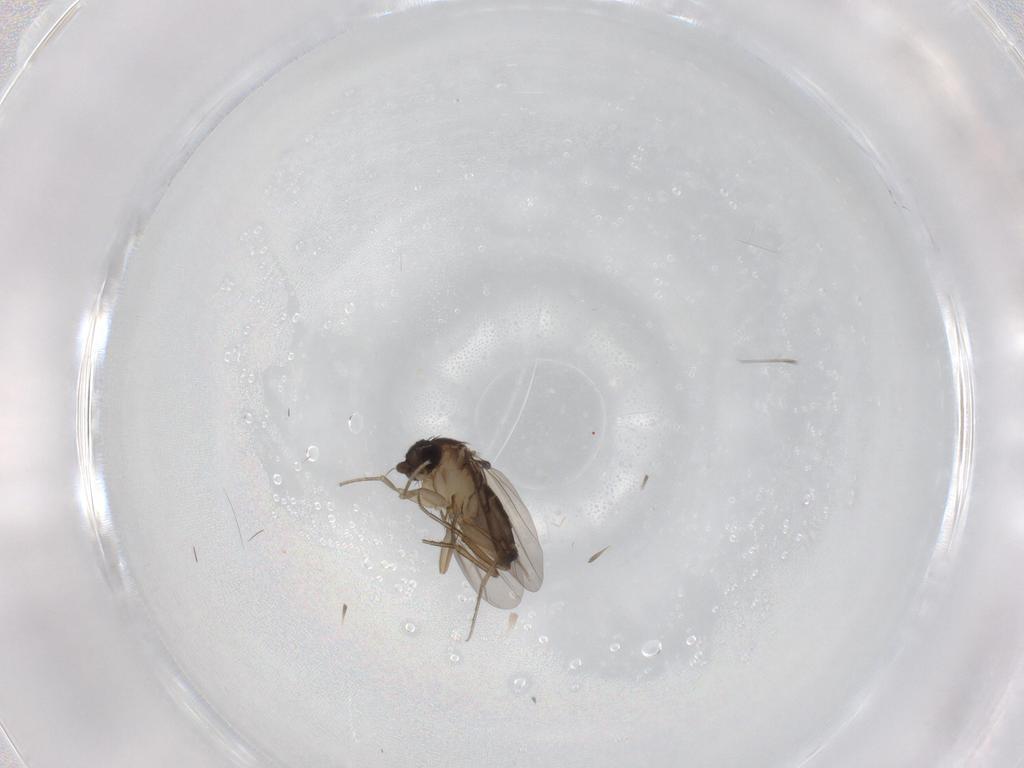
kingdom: Animalia
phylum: Arthropoda
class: Insecta
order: Diptera
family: Phoridae
